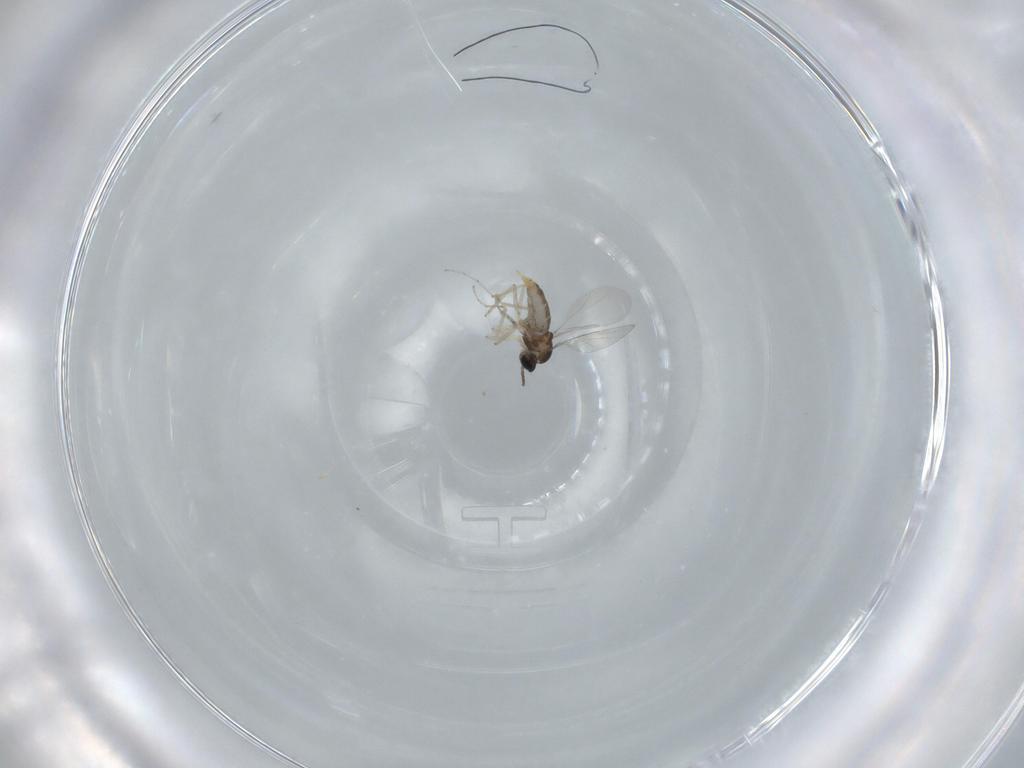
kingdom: Animalia
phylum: Arthropoda
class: Insecta
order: Diptera
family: Cecidomyiidae
